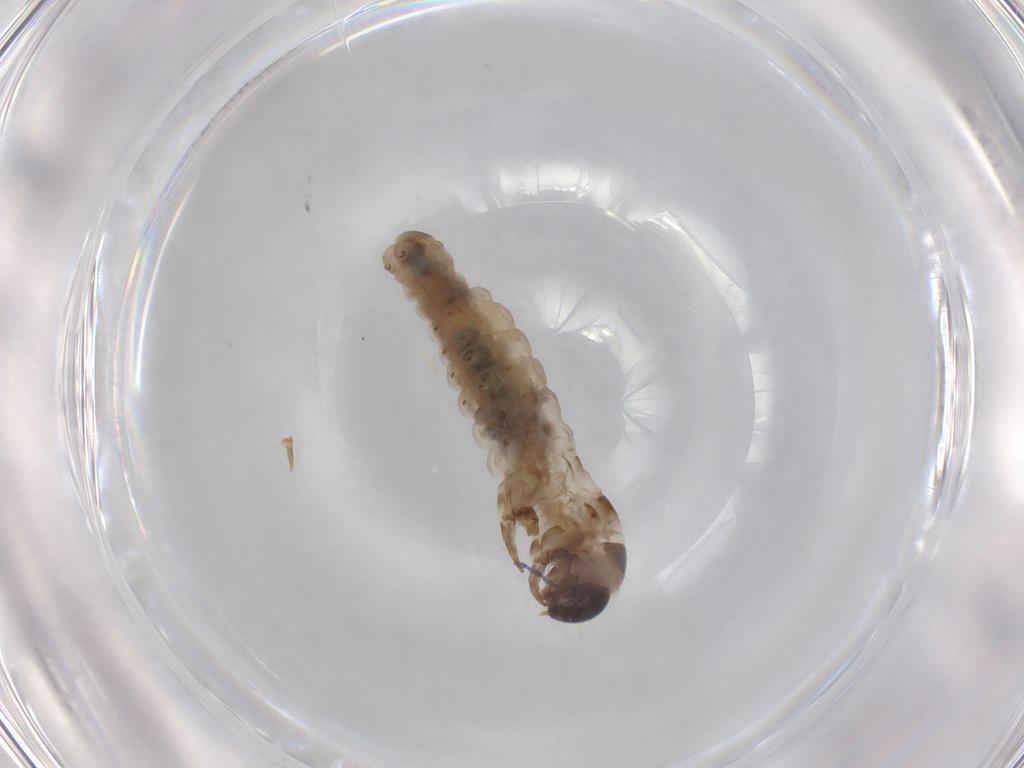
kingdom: Animalia
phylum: Arthropoda
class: Insecta
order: Lepidoptera
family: Psychidae
